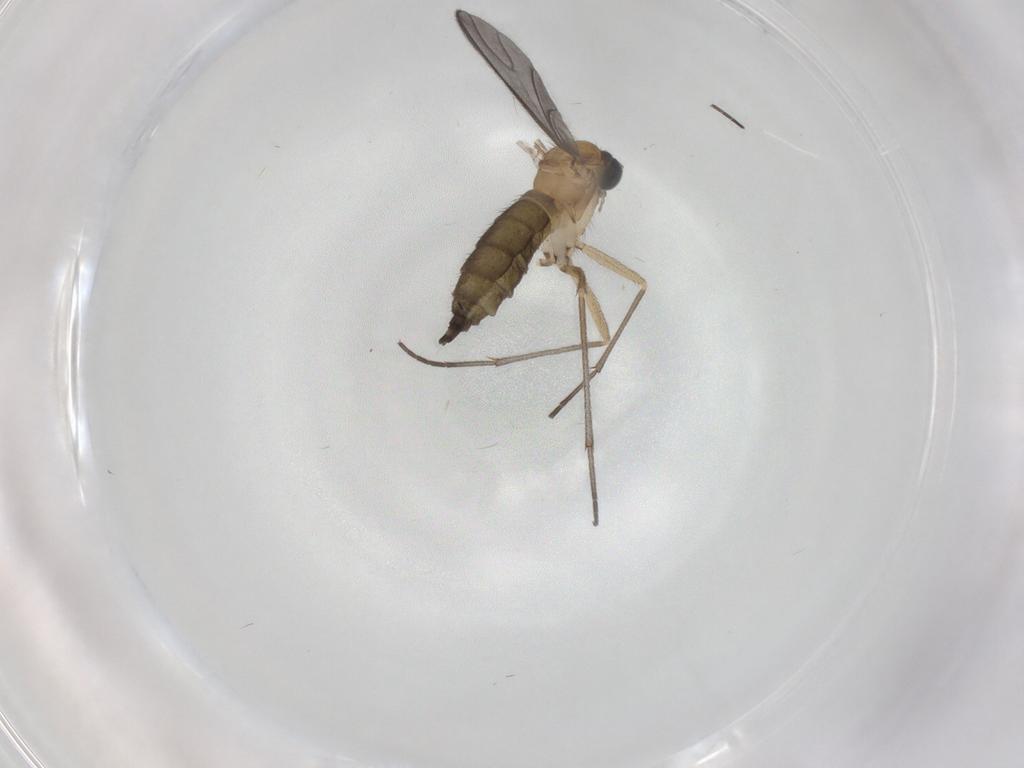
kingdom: Animalia
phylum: Arthropoda
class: Insecta
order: Diptera
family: Sciaridae
